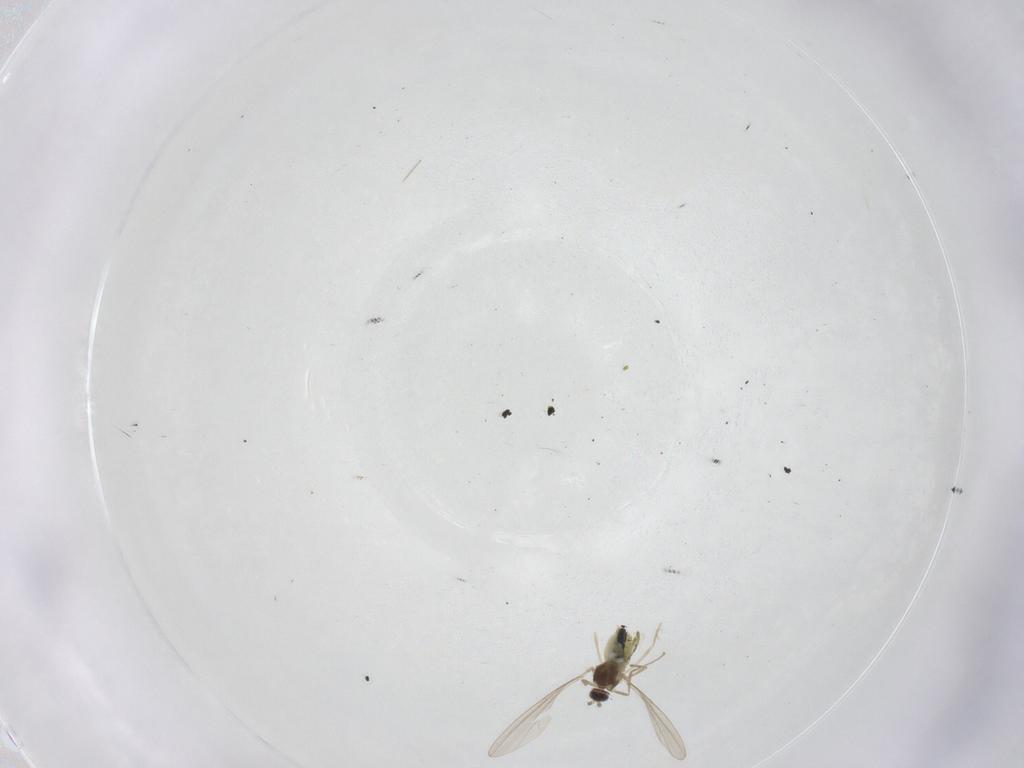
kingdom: Animalia
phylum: Arthropoda
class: Insecta
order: Diptera
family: Cecidomyiidae
